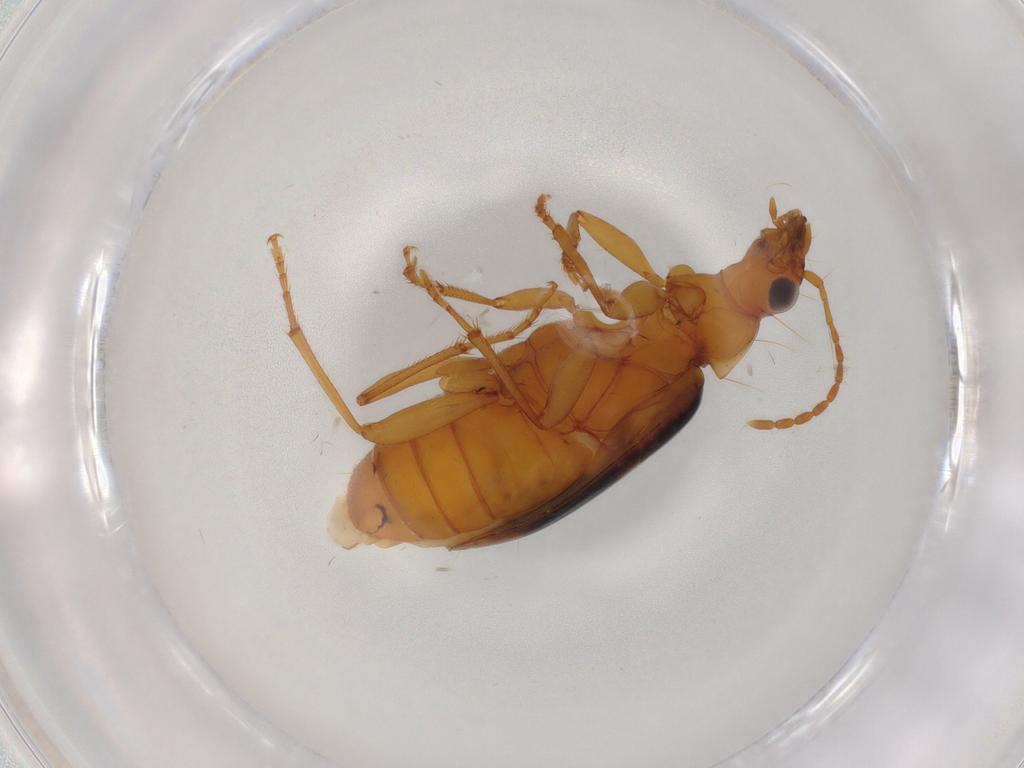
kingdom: Animalia
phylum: Arthropoda
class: Insecta
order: Coleoptera
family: Carabidae
